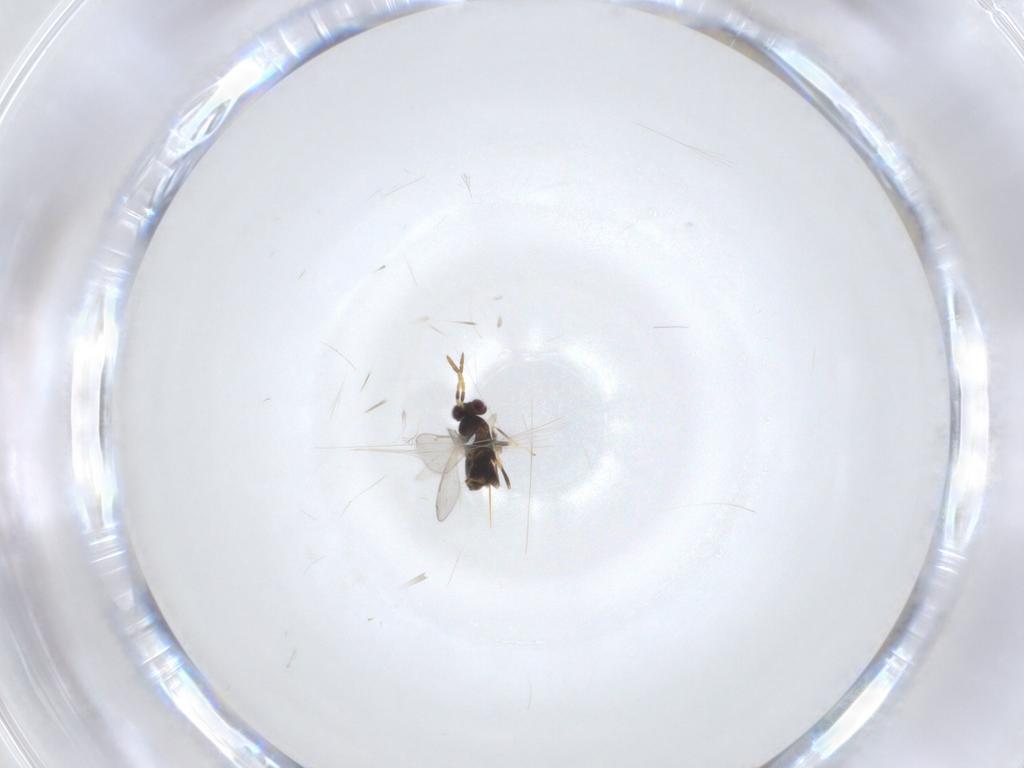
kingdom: Animalia
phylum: Arthropoda
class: Insecta
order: Hymenoptera
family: Aphelinidae
